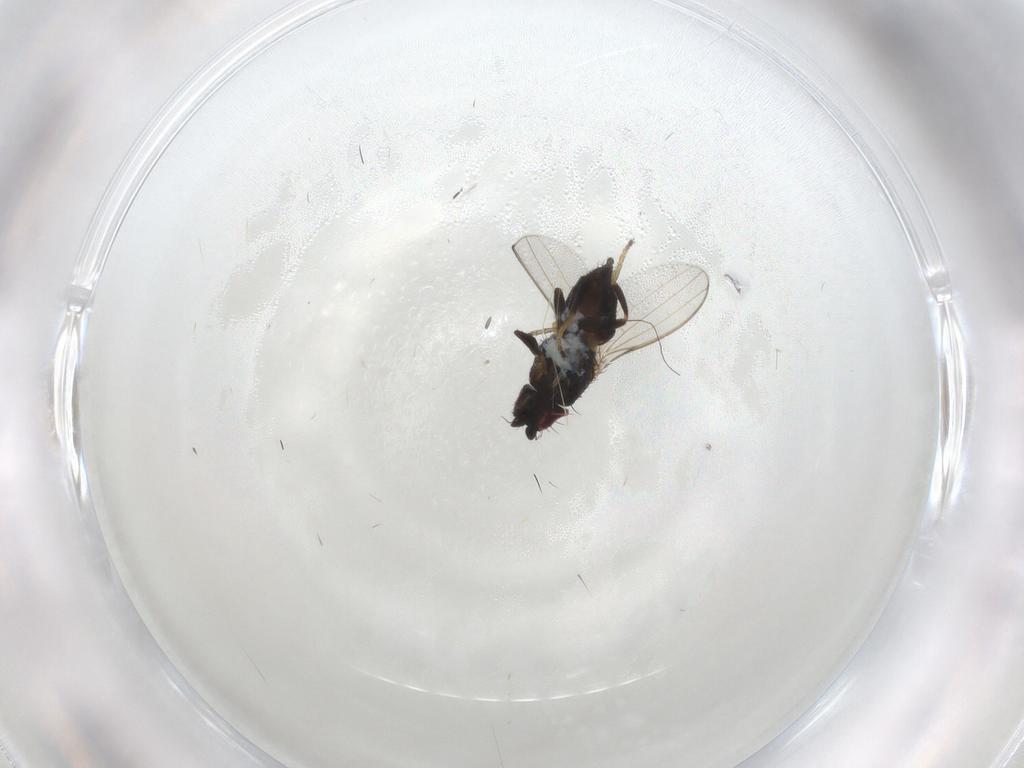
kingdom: Animalia
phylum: Arthropoda
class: Insecta
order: Diptera
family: Milichiidae
